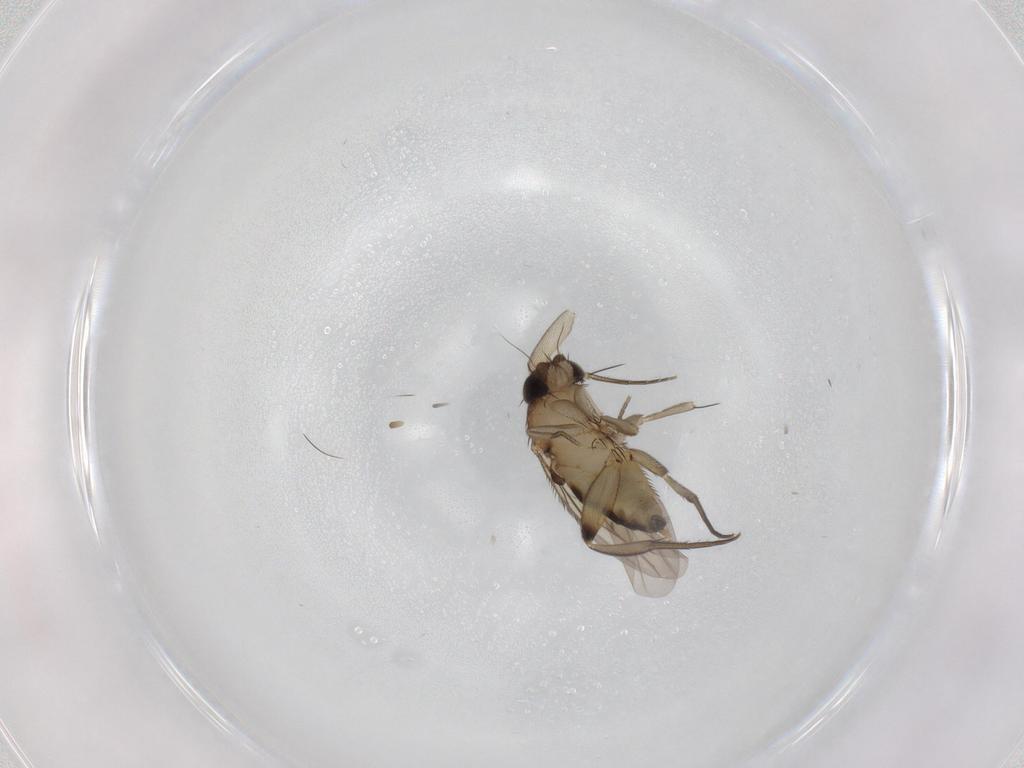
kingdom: Animalia
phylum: Arthropoda
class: Insecta
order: Diptera
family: Phoridae
